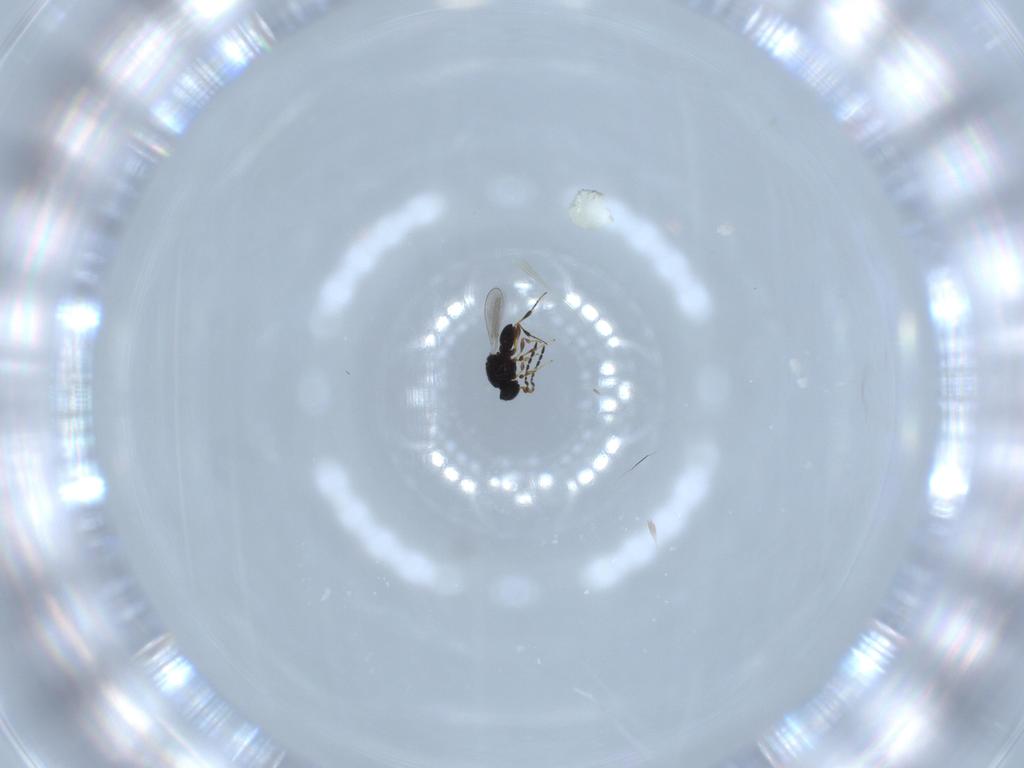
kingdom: Animalia
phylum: Arthropoda
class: Insecta
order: Hymenoptera
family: Platygastridae
